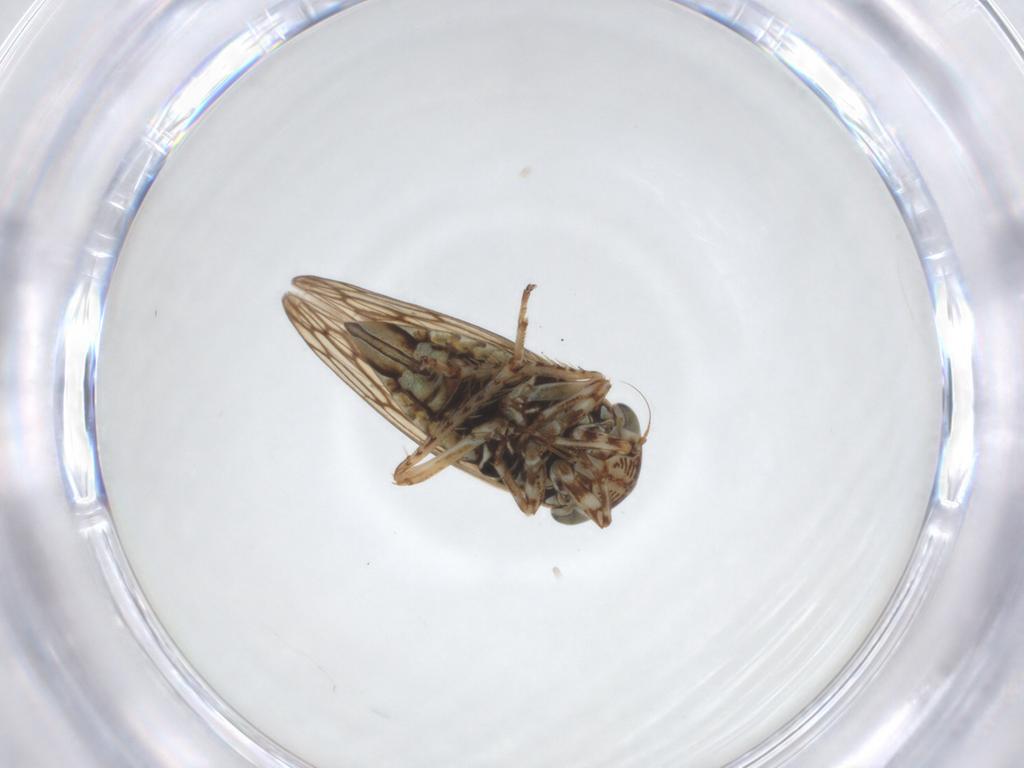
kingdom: Animalia
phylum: Arthropoda
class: Insecta
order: Hemiptera
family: Cicadellidae
